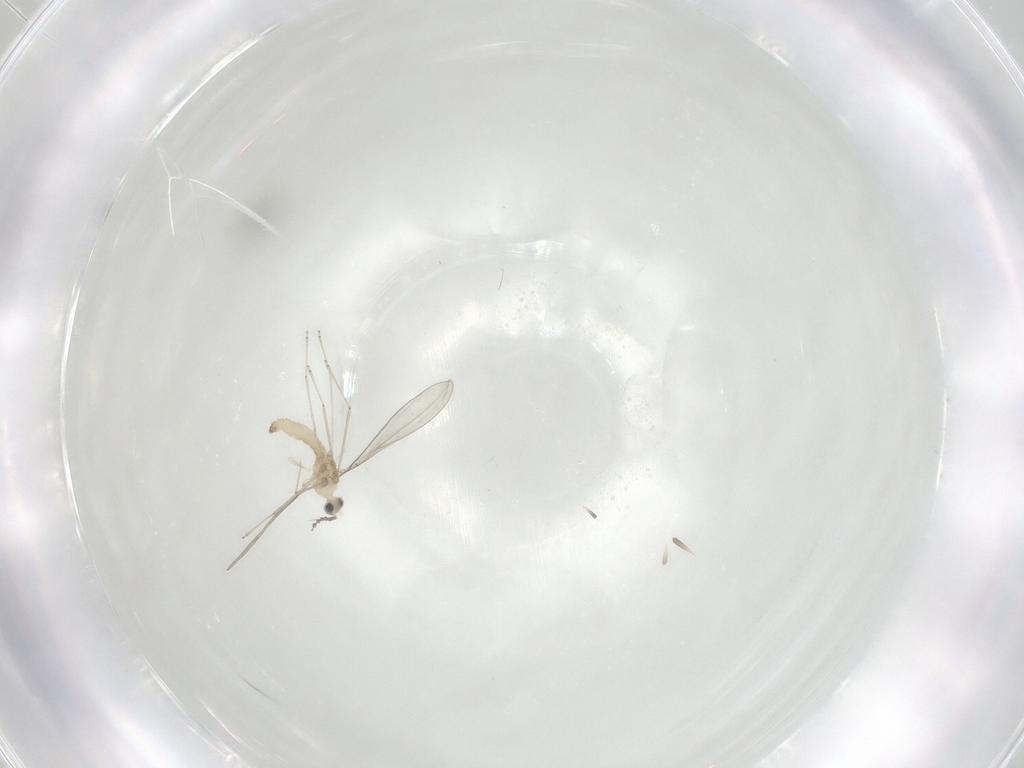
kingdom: Animalia
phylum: Arthropoda
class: Insecta
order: Diptera
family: Cecidomyiidae
